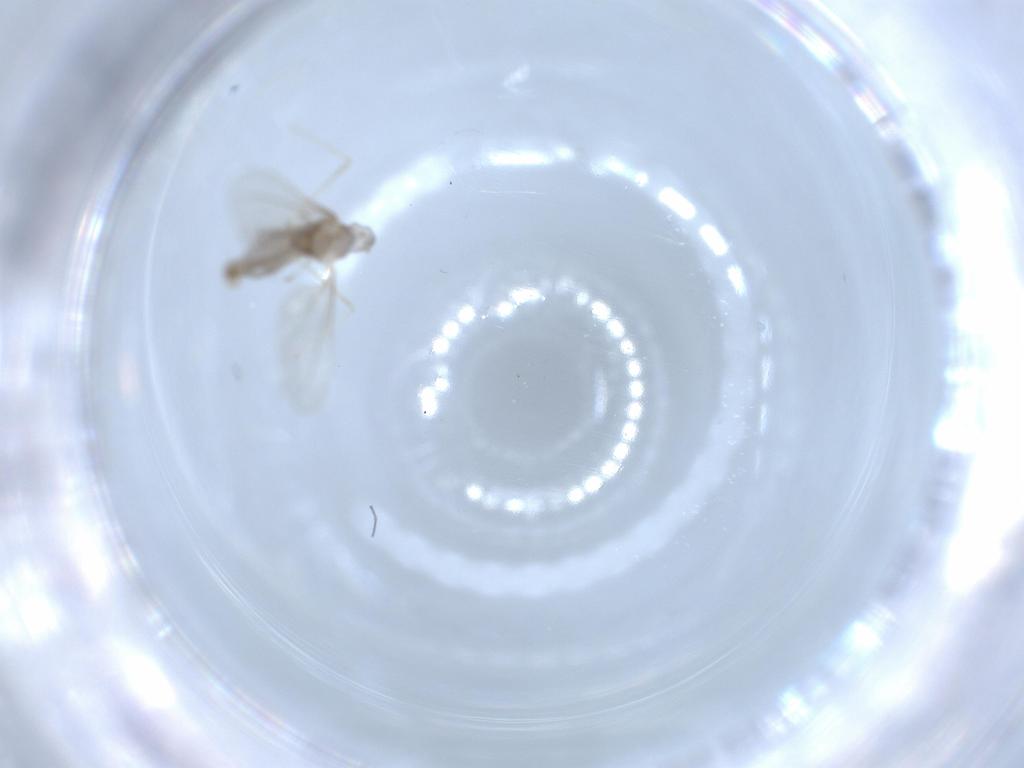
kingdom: Animalia
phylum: Arthropoda
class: Insecta
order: Diptera
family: Cecidomyiidae
